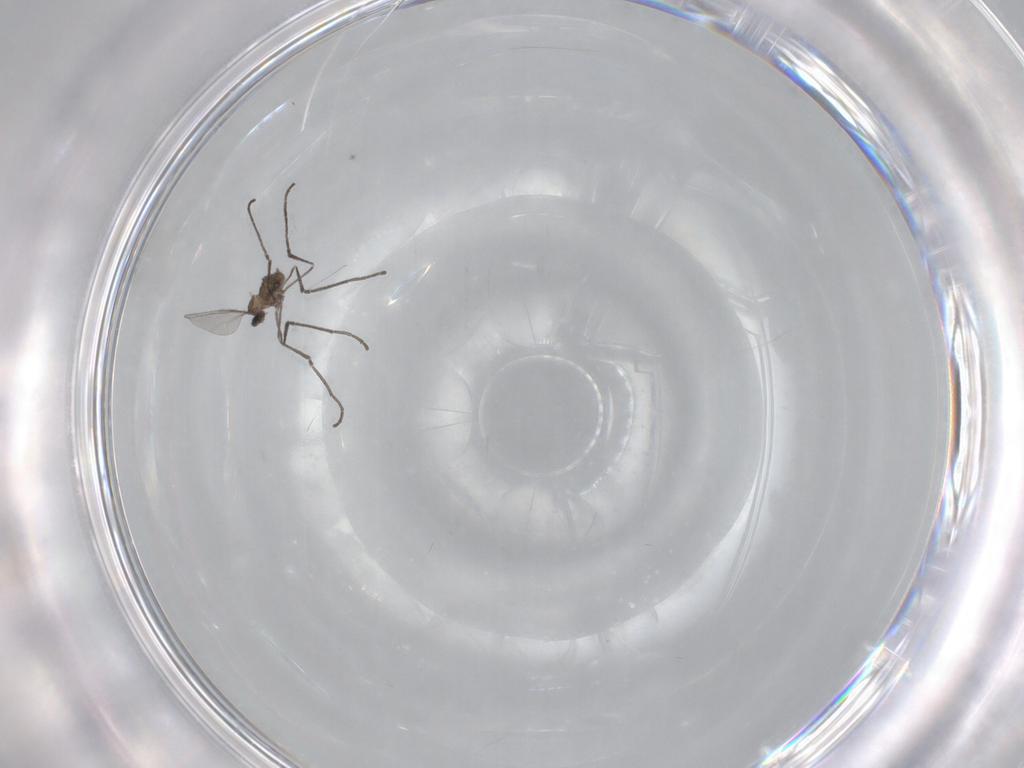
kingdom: Animalia
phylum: Arthropoda
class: Insecta
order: Diptera
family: Cecidomyiidae
